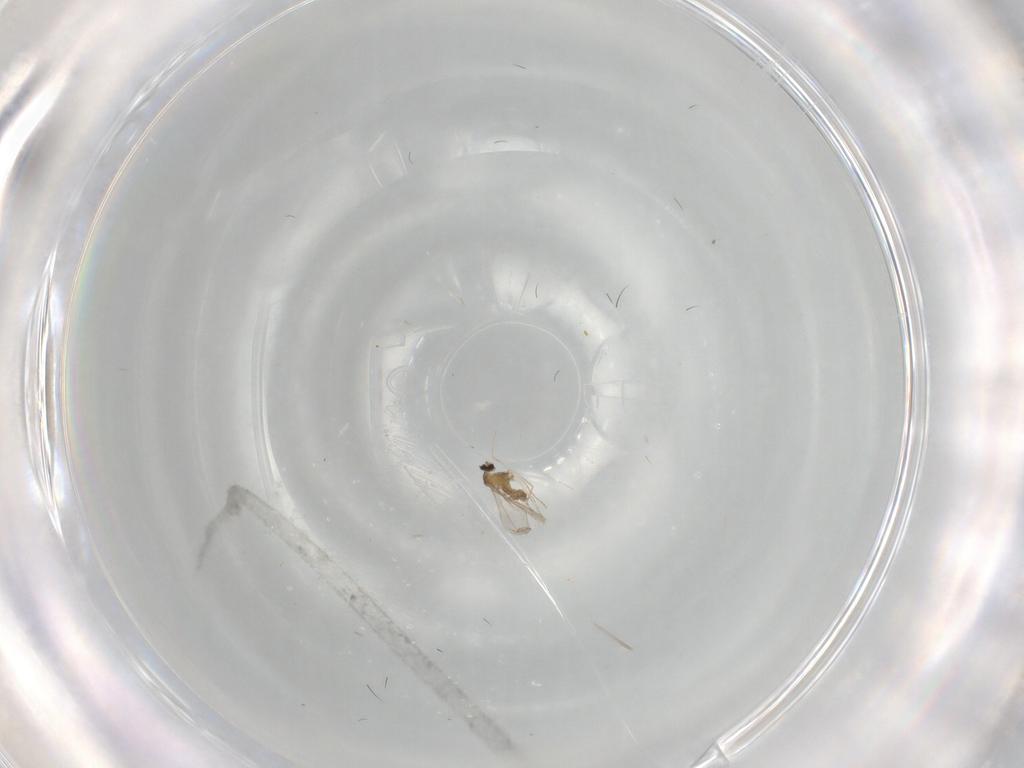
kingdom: Animalia
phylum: Arthropoda
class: Insecta
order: Diptera
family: Cecidomyiidae
